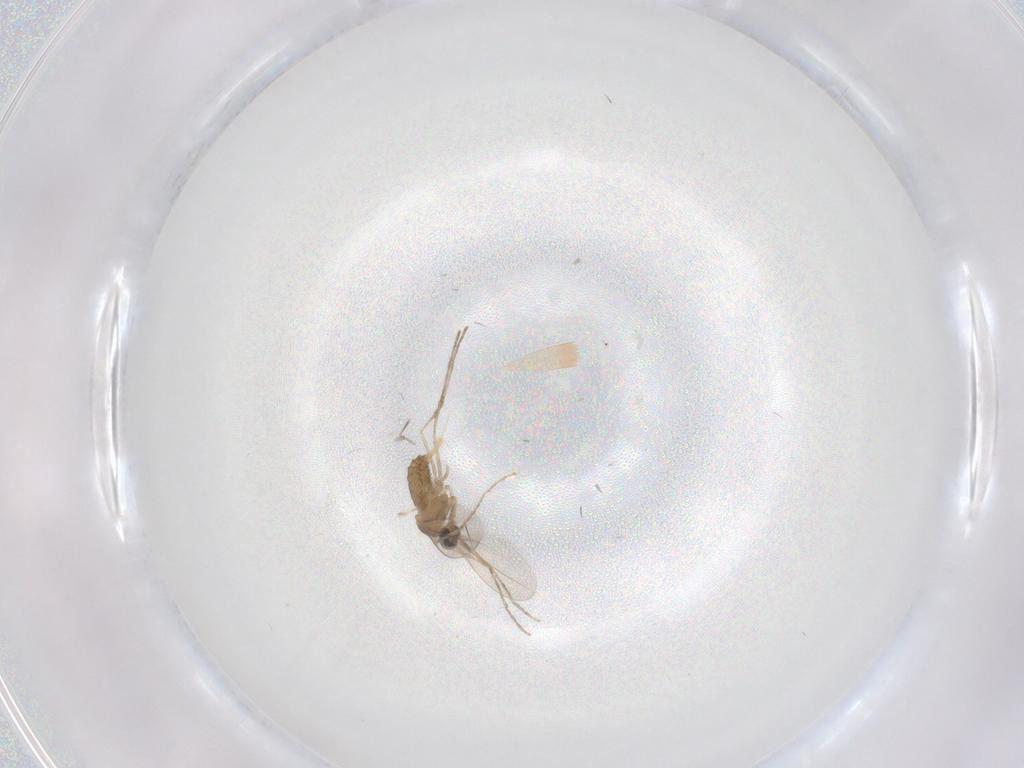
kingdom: Animalia
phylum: Arthropoda
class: Insecta
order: Diptera
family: Cecidomyiidae
